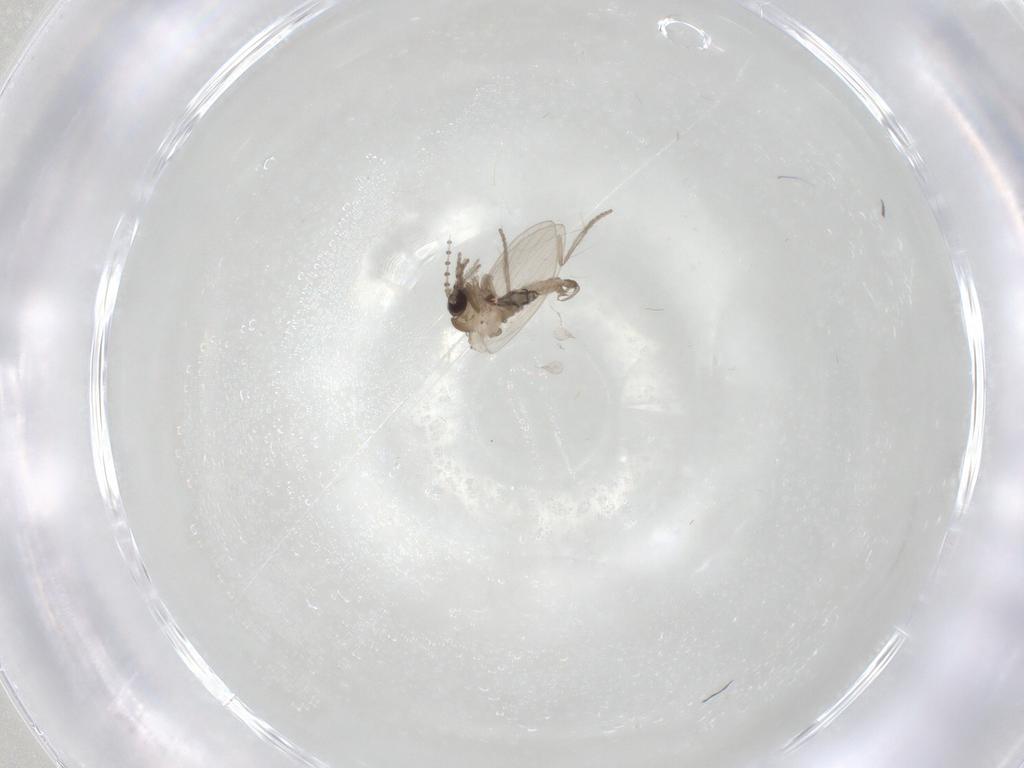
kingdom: Animalia
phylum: Arthropoda
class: Insecta
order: Diptera
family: Psychodidae
